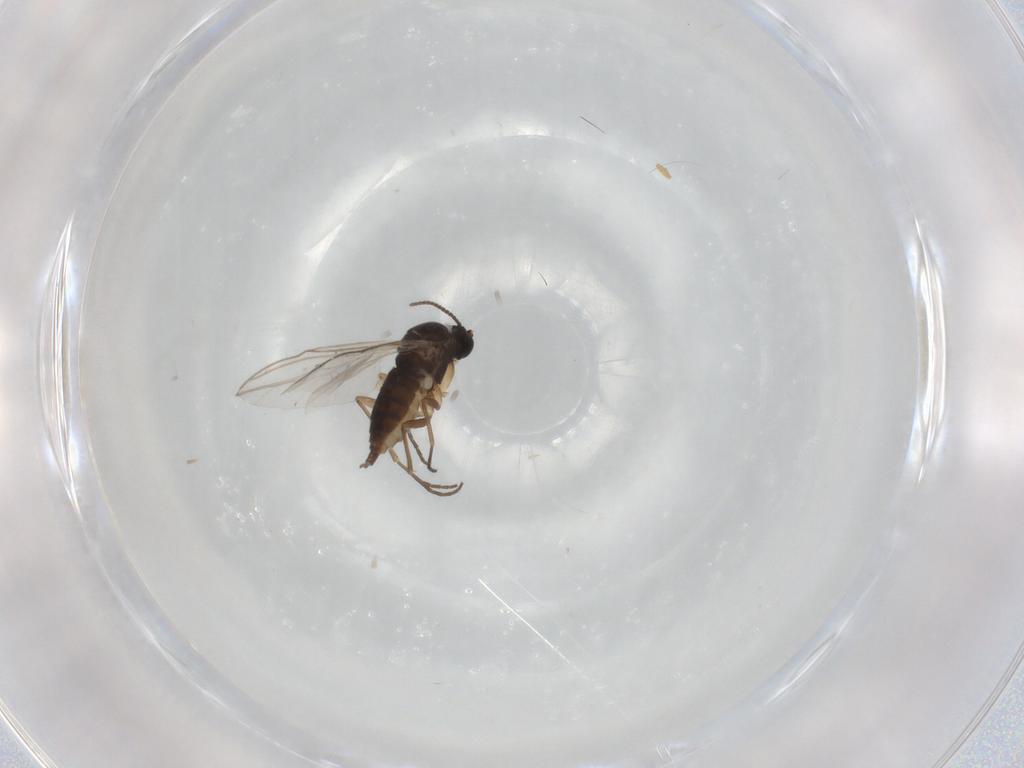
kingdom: Animalia
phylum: Arthropoda
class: Insecta
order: Diptera
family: Sciaridae
